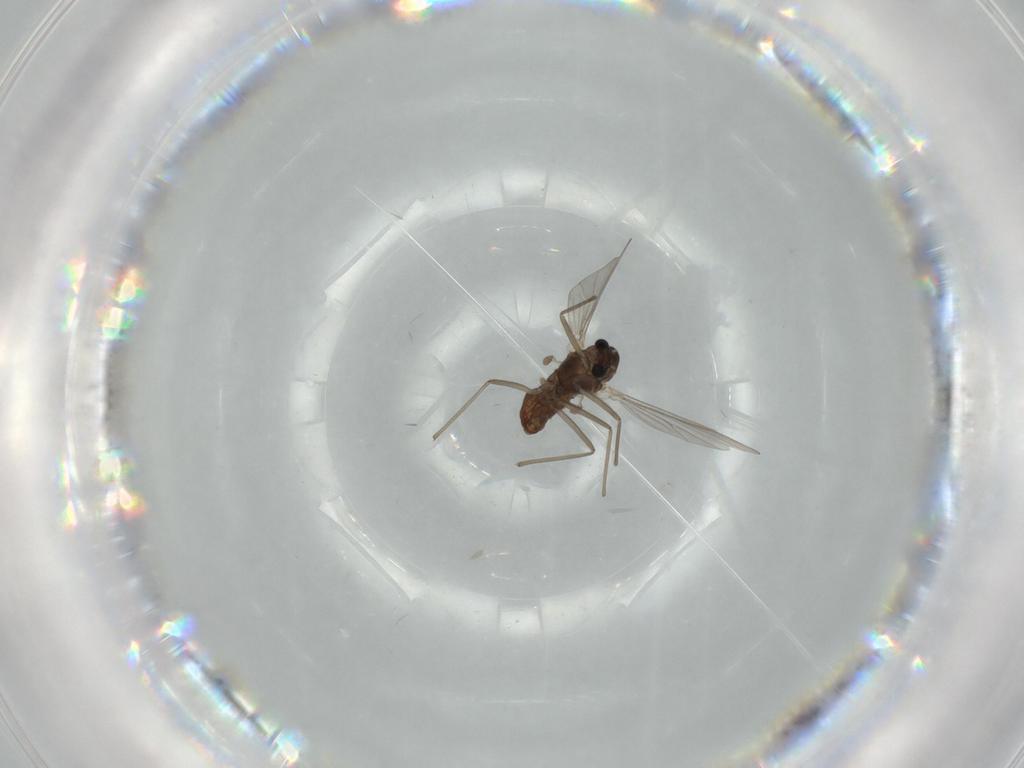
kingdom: Animalia
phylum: Arthropoda
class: Insecta
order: Diptera
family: Chironomidae
